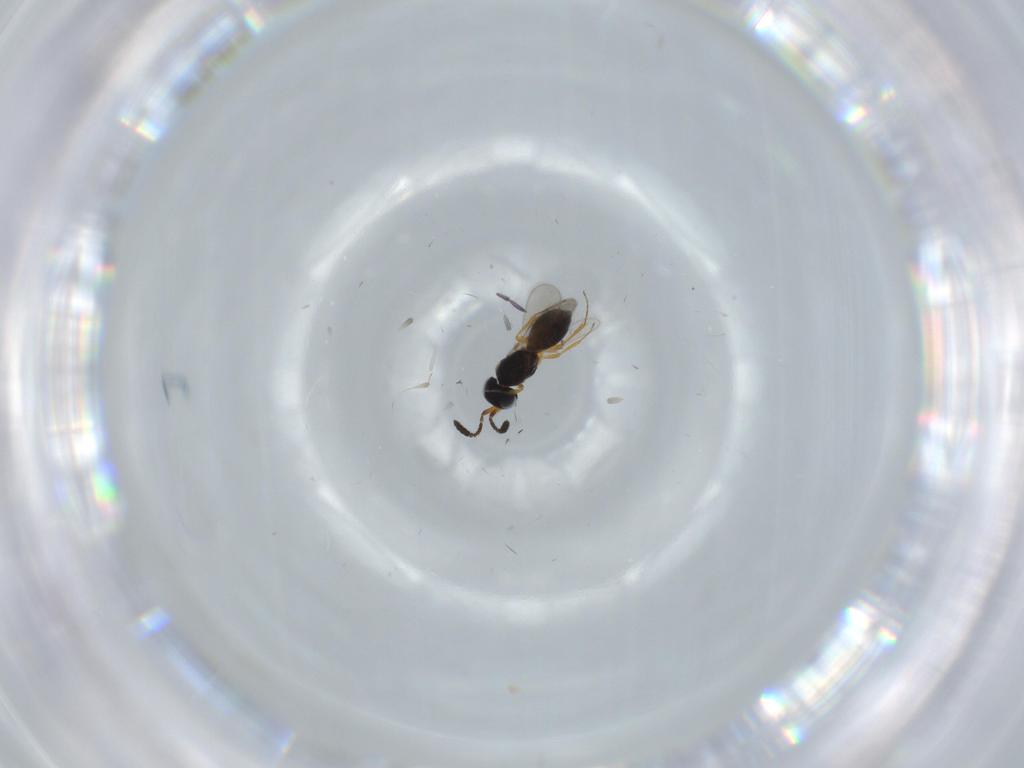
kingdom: Animalia
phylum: Arthropoda
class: Insecta
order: Hymenoptera
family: Scelionidae
